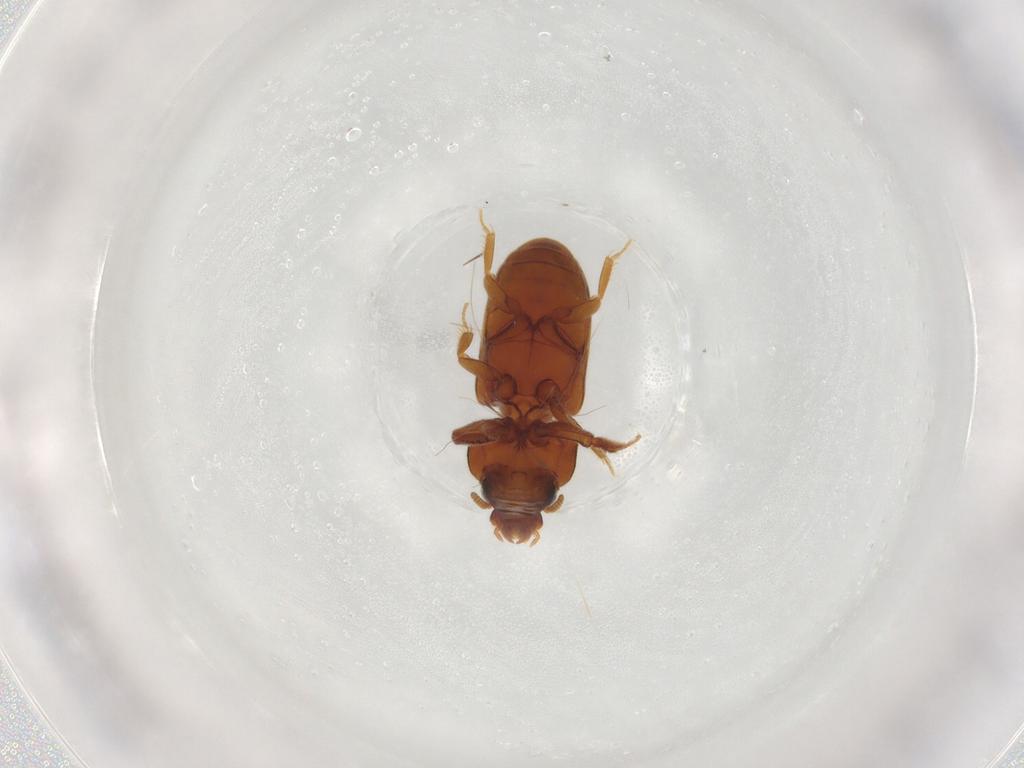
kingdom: Animalia
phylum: Arthropoda
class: Insecta
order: Coleoptera
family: Heteroceridae
